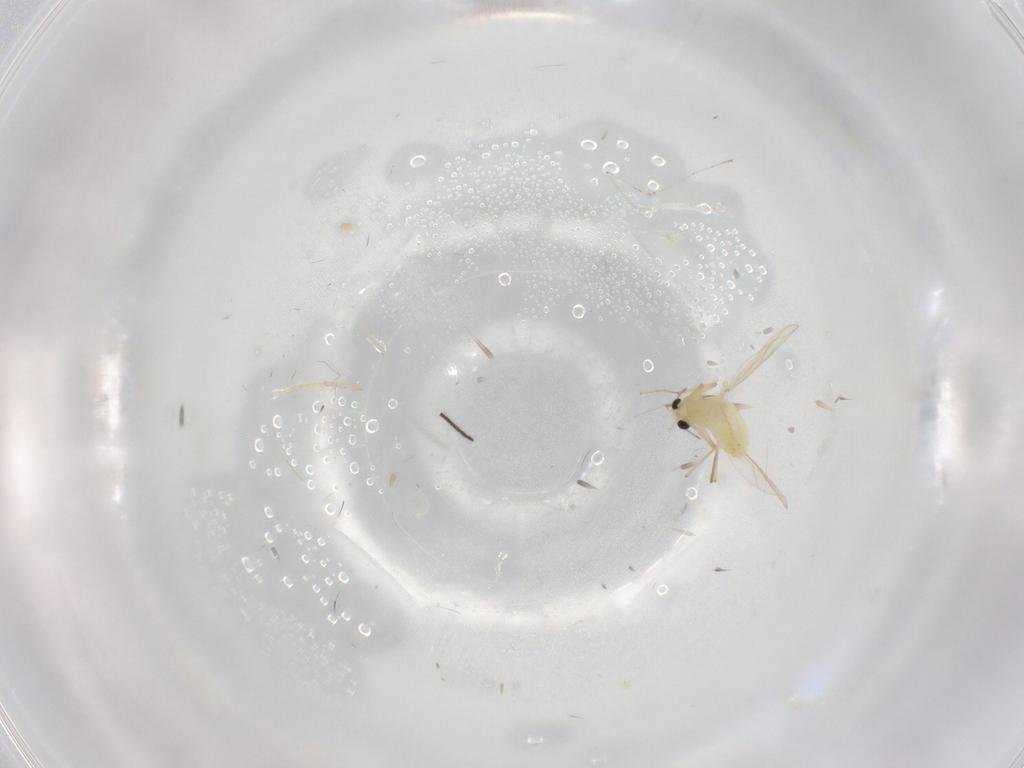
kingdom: Animalia
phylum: Arthropoda
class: Insecta
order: Diptera
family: Chironomidae
